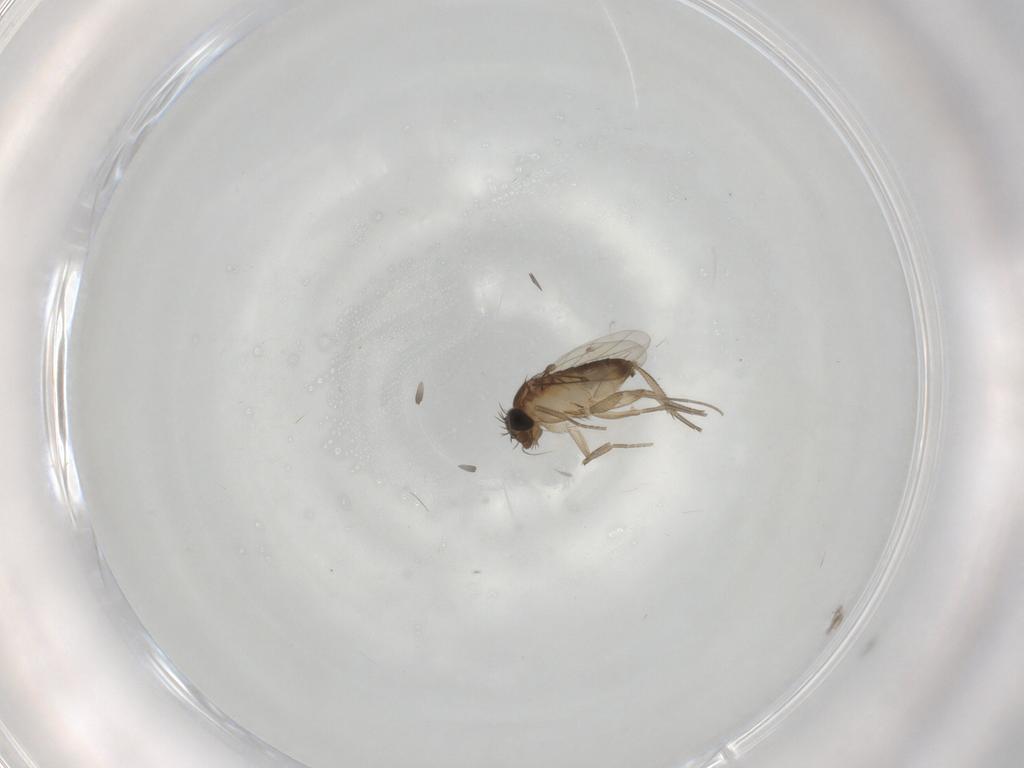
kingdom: Animalia
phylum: Arthropoda
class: Insecta
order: Diptera
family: Phoridae
